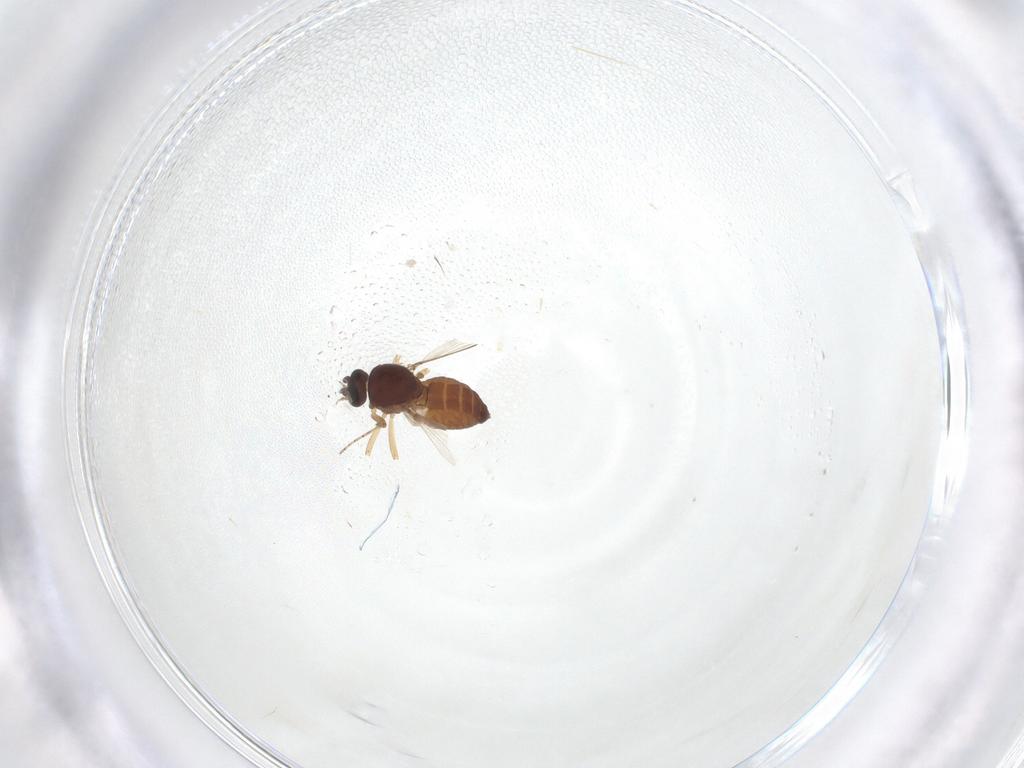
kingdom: Animalia
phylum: Arthropoda
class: Insecta
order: Diptera
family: Ceratopogonidae
